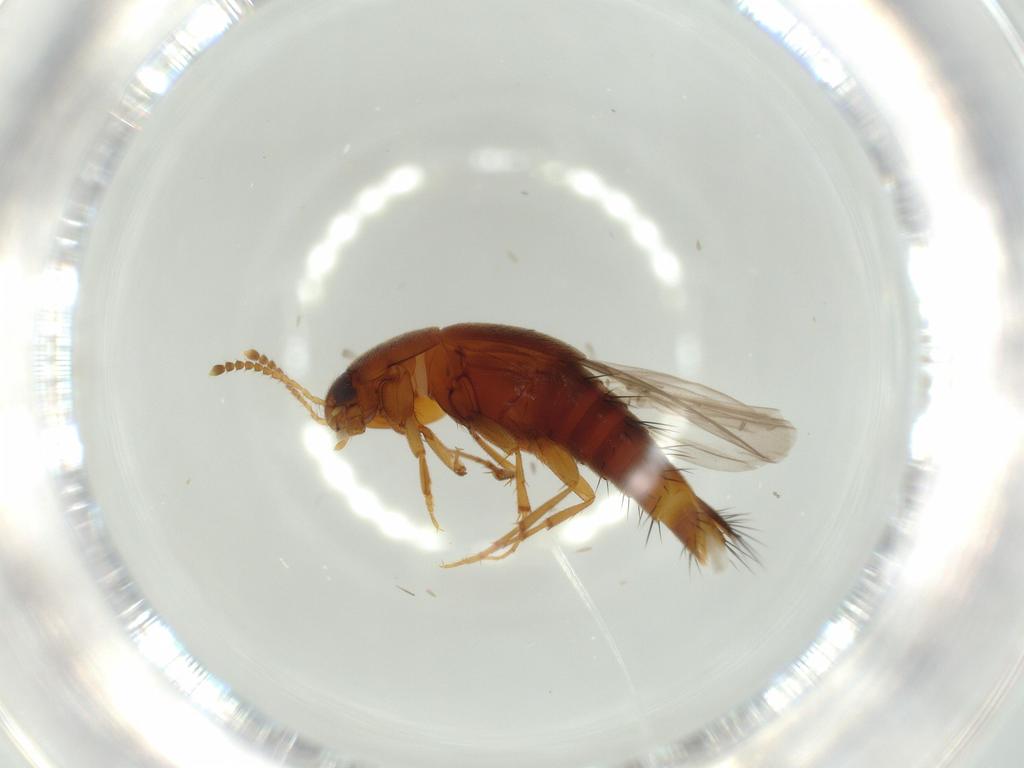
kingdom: Animalia
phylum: Arthropoda
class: Insecta
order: Coleoptera
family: Staphylinidae
